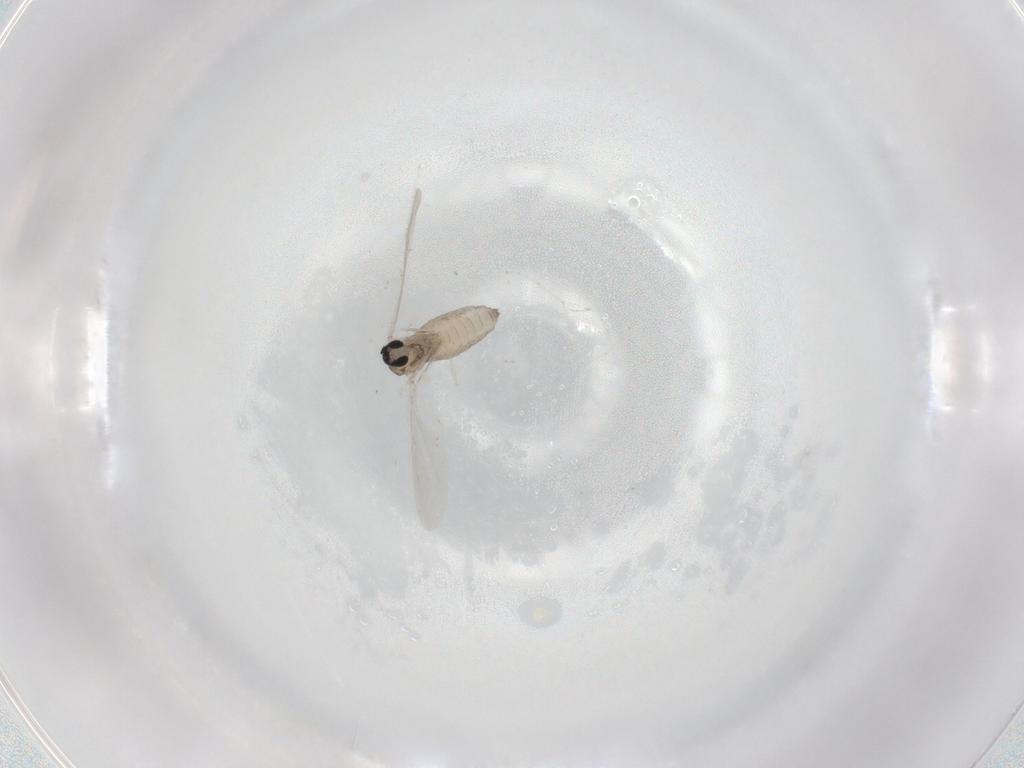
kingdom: Animalia
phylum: Arthropoda
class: Insecta
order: Diptera
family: Cecidomyiidae
